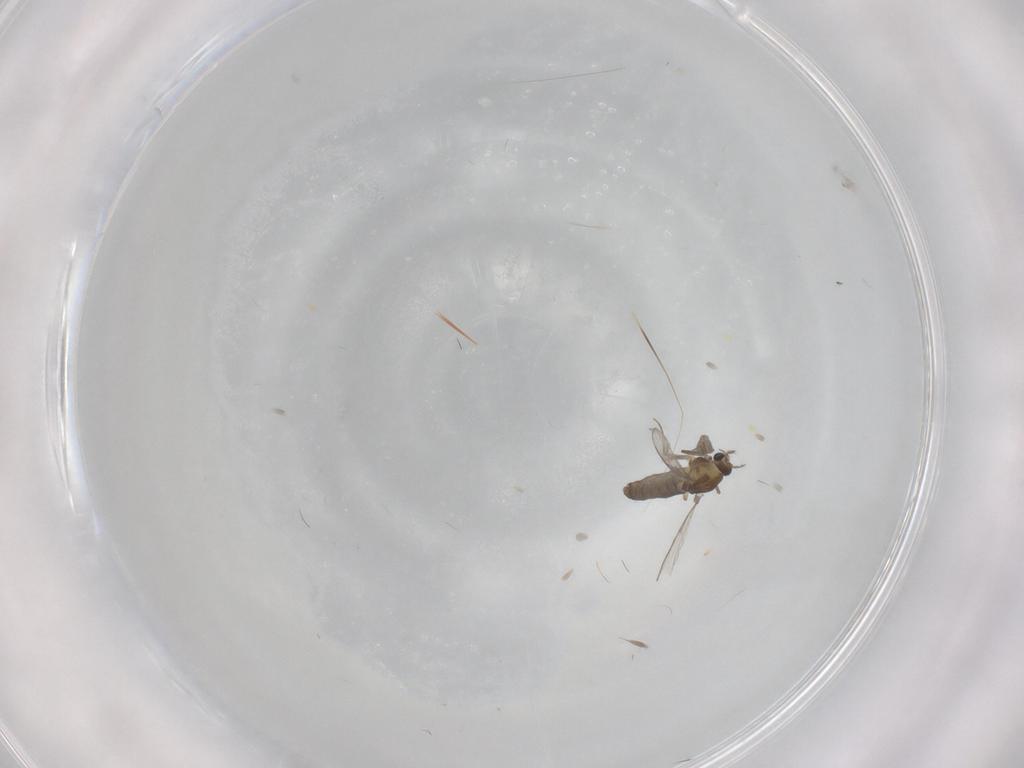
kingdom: Animalia
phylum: Arthropoda
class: Insecta
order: Diptera
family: Chironomidae
